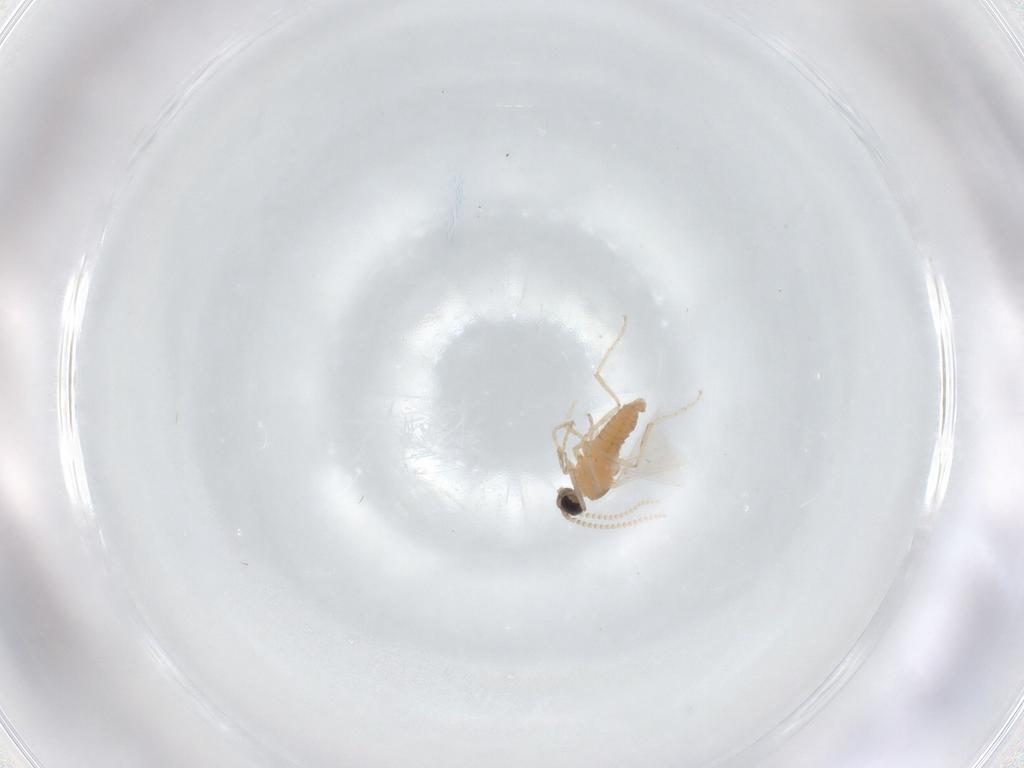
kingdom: Animalia
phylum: Arthropoda
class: Insecta
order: Diptera
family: Cecidomyiidae
